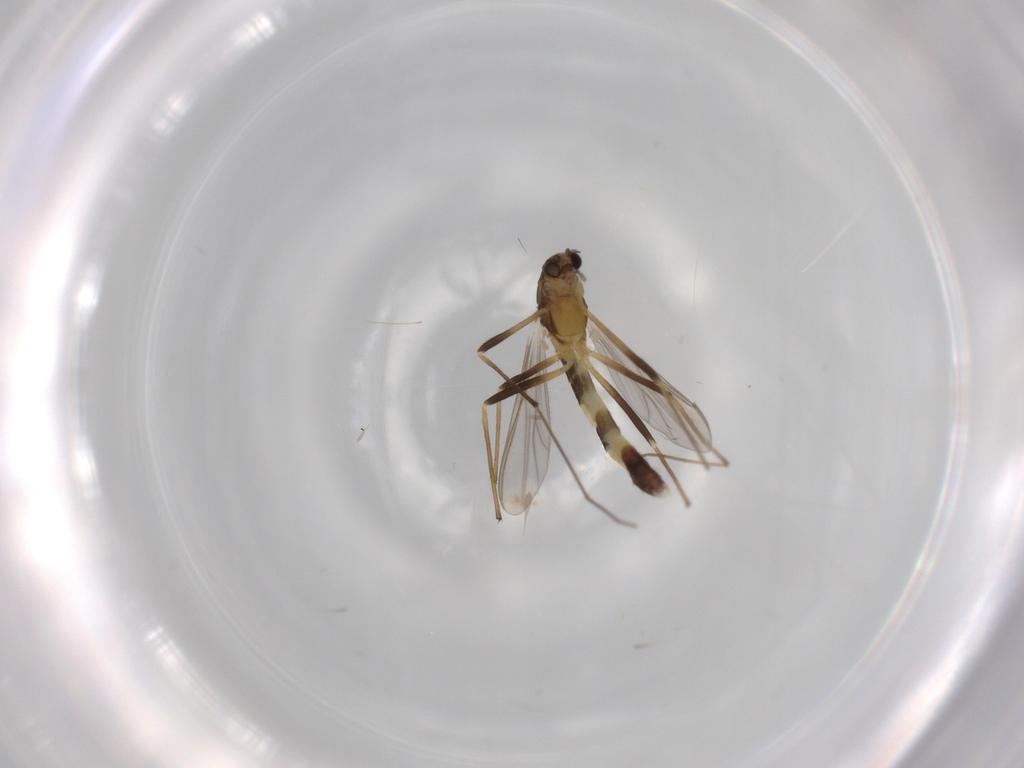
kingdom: Animalia
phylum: Arthropoda
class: Insecta
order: Diptera
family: Chironomidae
